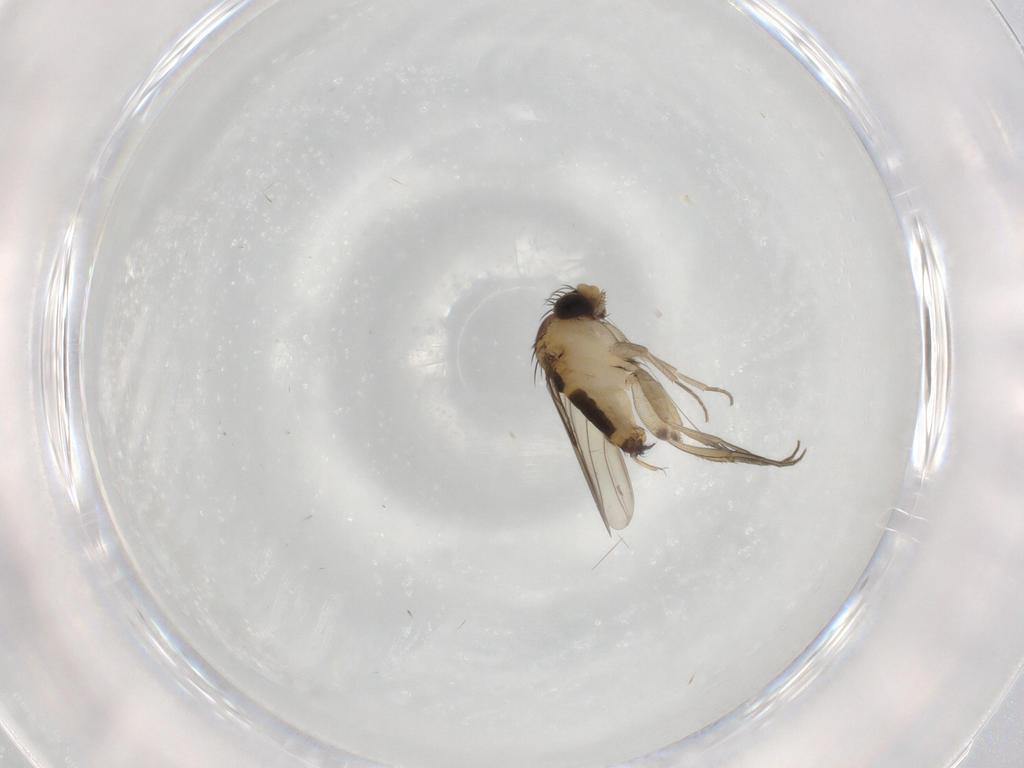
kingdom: Animalia
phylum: Arthropoda
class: Insecta
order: Diptera
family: Phoridae
